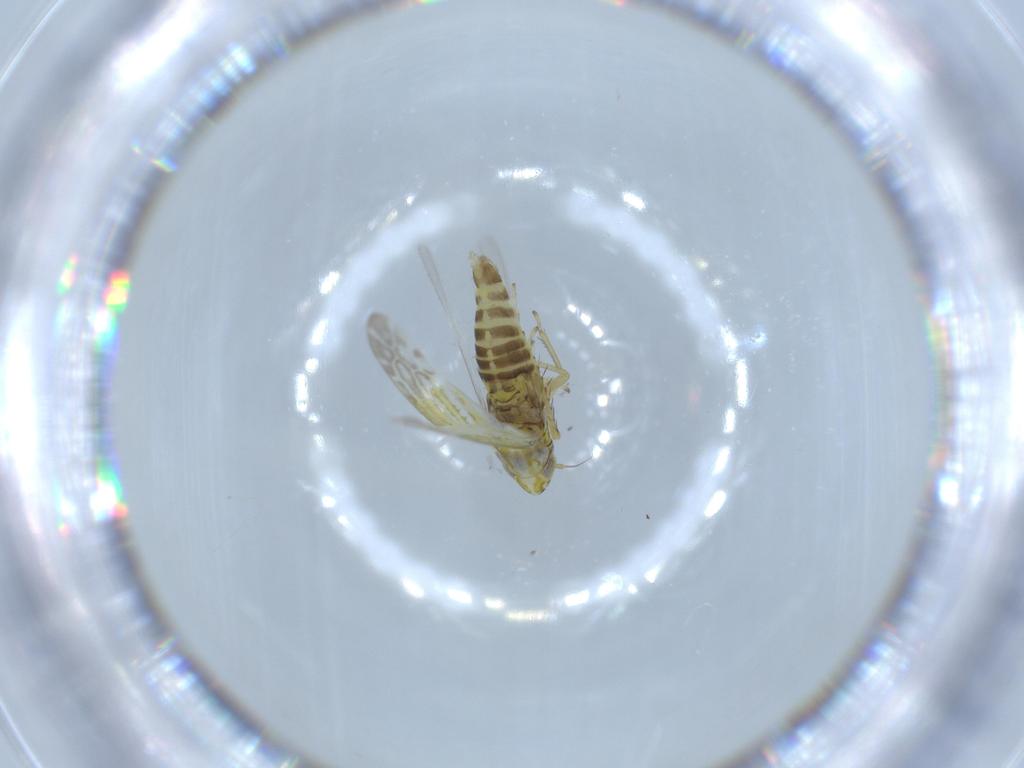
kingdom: Animalia
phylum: Arthropoda
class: Insecta
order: Hemiptera
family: Cicadellidae
